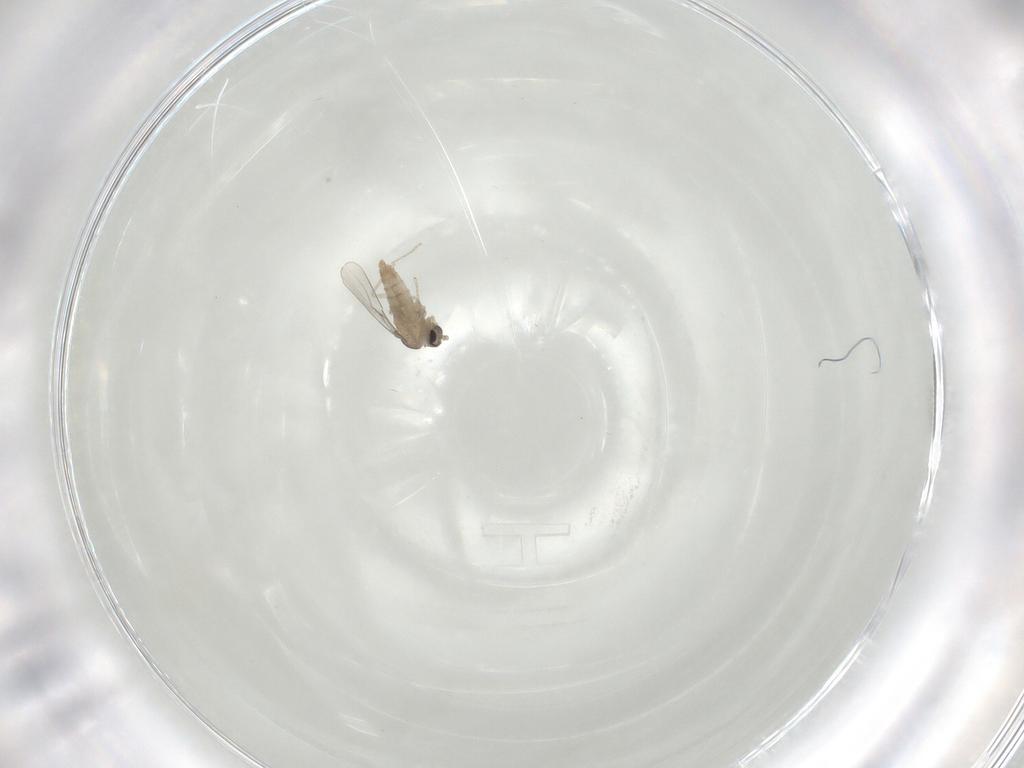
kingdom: Animalia
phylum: Arthropoda
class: Insecta
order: Diptera
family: Cecidomyiidae
